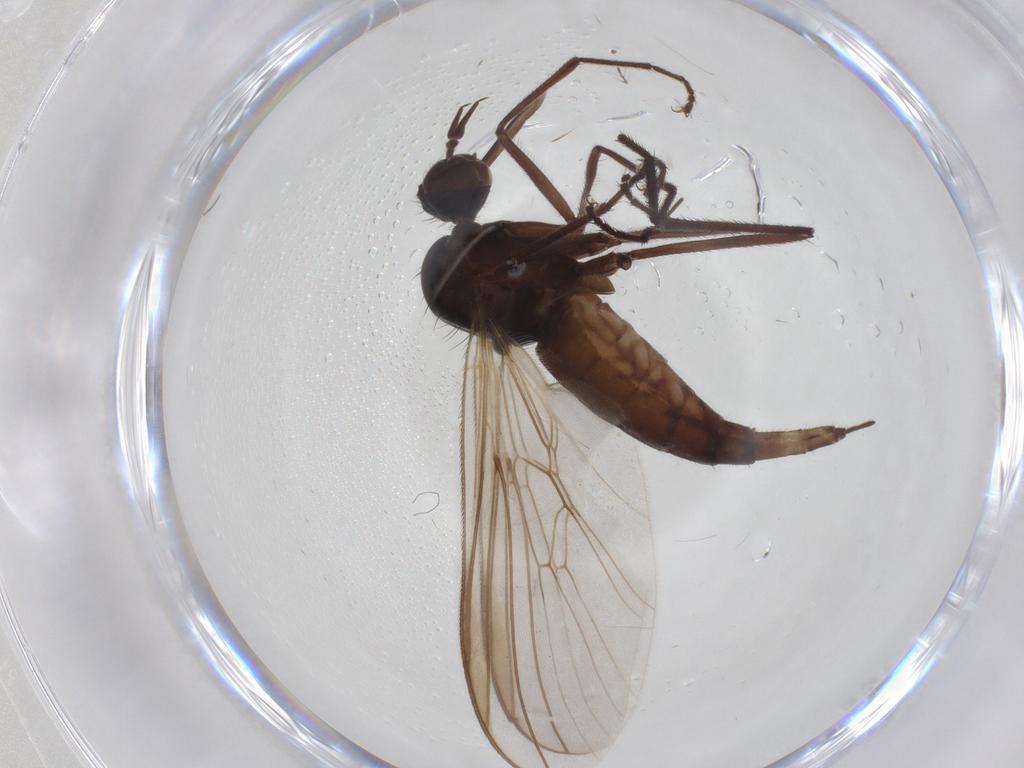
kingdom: Animalia
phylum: Arthropoda
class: Insecta
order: Diptera
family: Empididae
